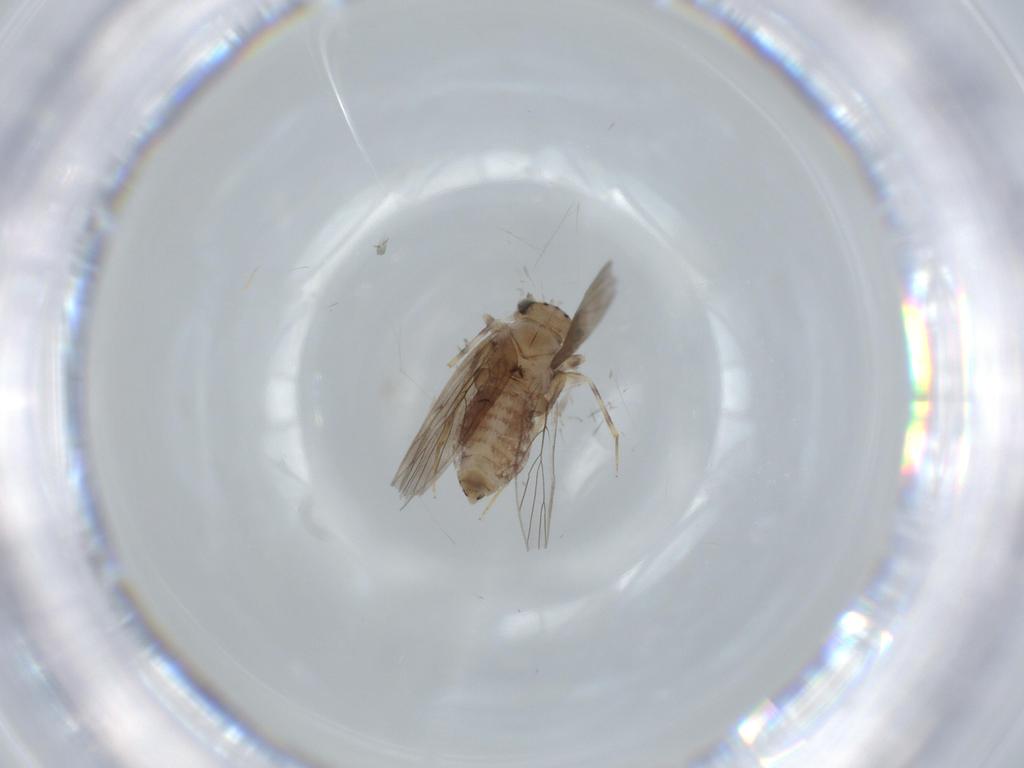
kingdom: Animalia
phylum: Arthropoda
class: Insecta
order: Psocodea
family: Lepidopsocidae
